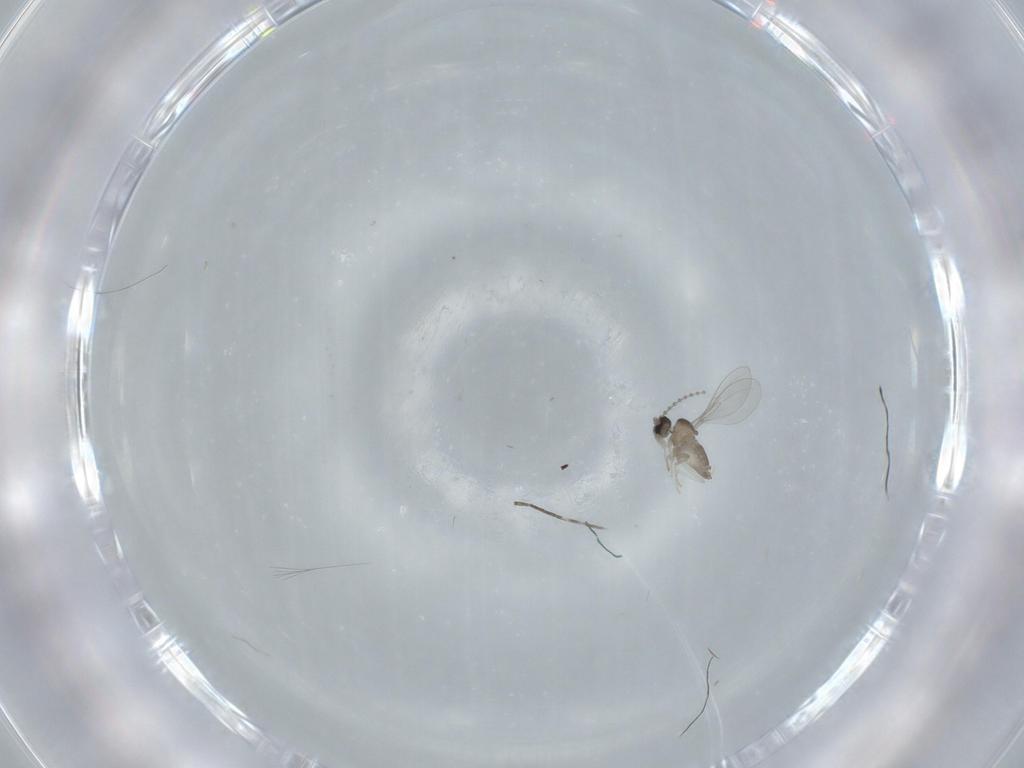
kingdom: Animalia
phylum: Arthropoda
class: Insecta
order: Diptera
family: Cecidomyiidae
